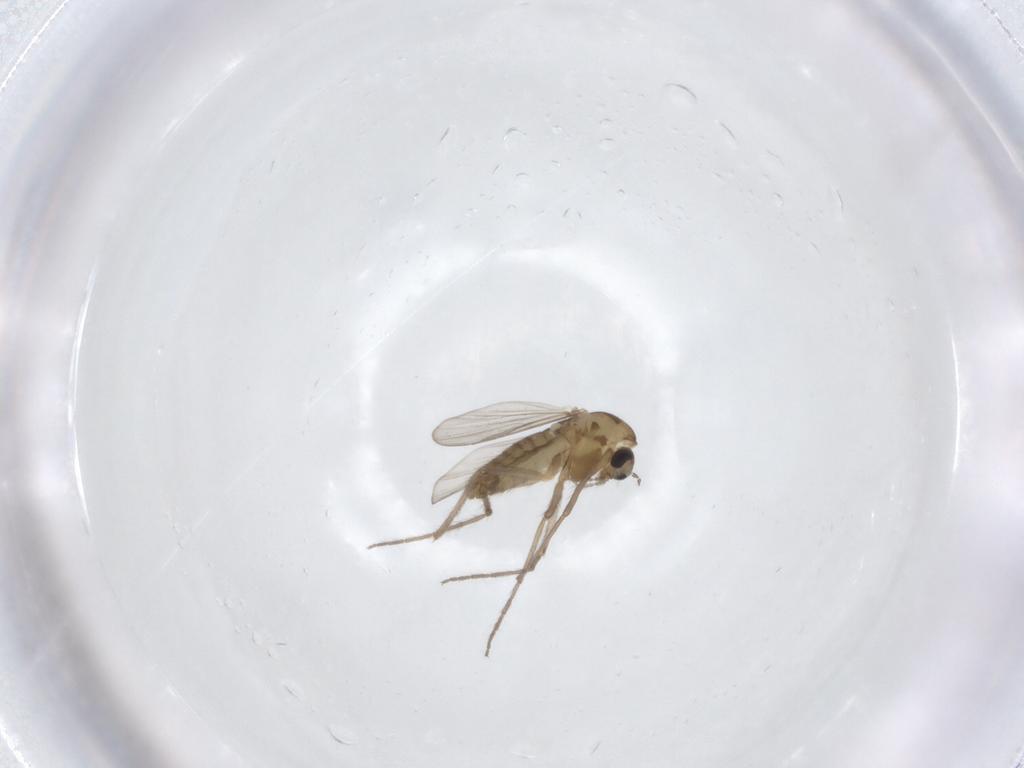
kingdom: Animalia
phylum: Arthropoda
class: Insecta
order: Diptera
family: Chironomidae
